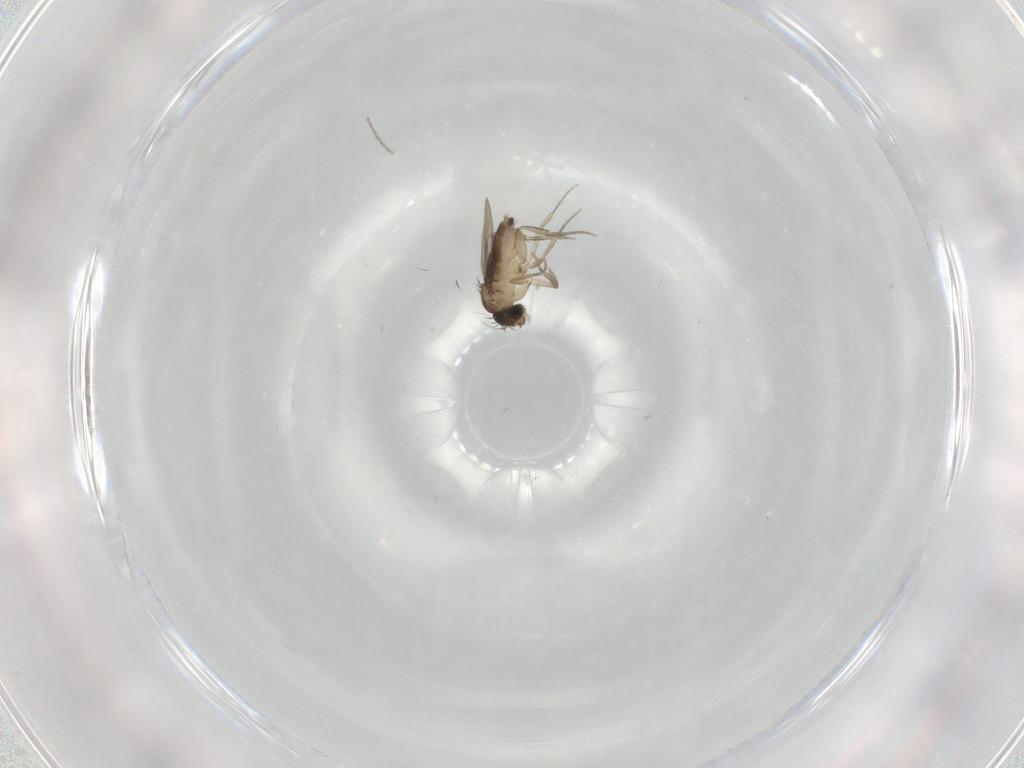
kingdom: Animalia
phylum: Arthropoda
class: Insecta
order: Diptera
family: Phoridae
